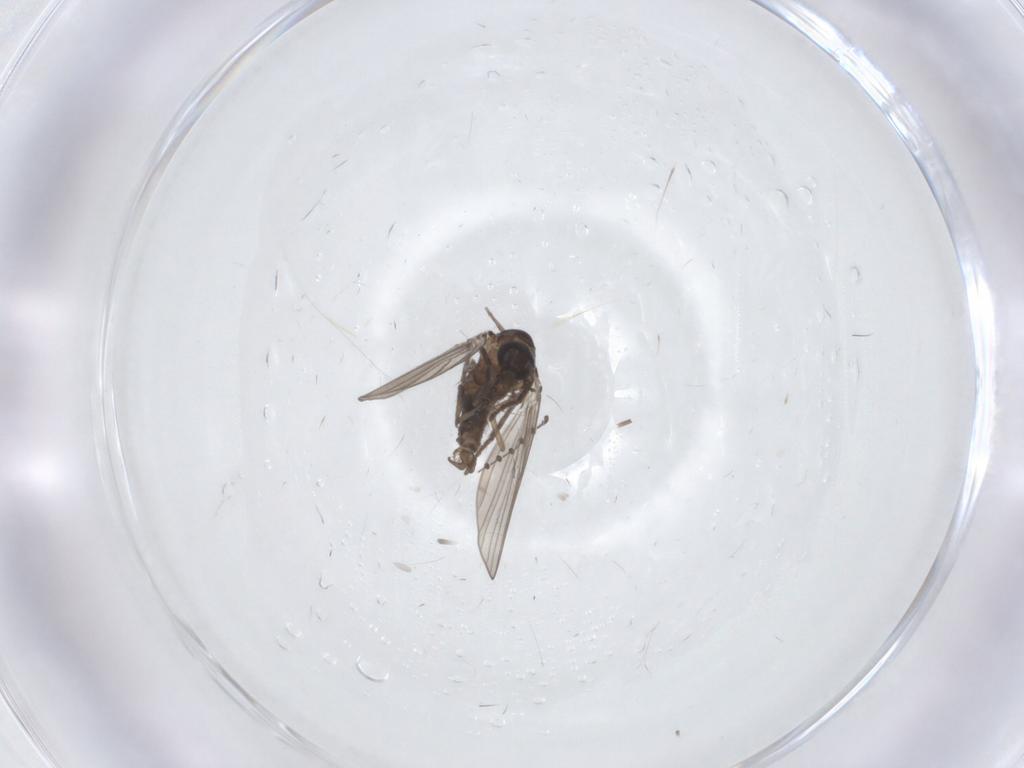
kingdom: Animalia
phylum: Arthropoda
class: Insecta
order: Diptera
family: Psychodidae
